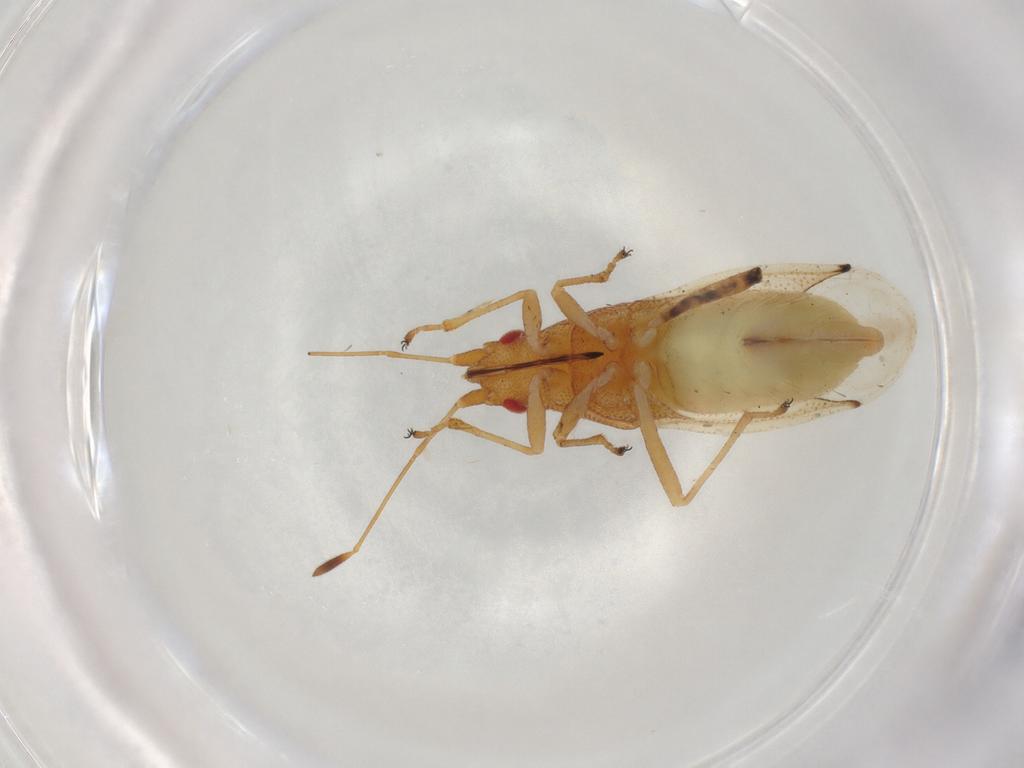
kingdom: Animalia
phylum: Arthropoda
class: Insecta
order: Hemiptera
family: Cymidae
